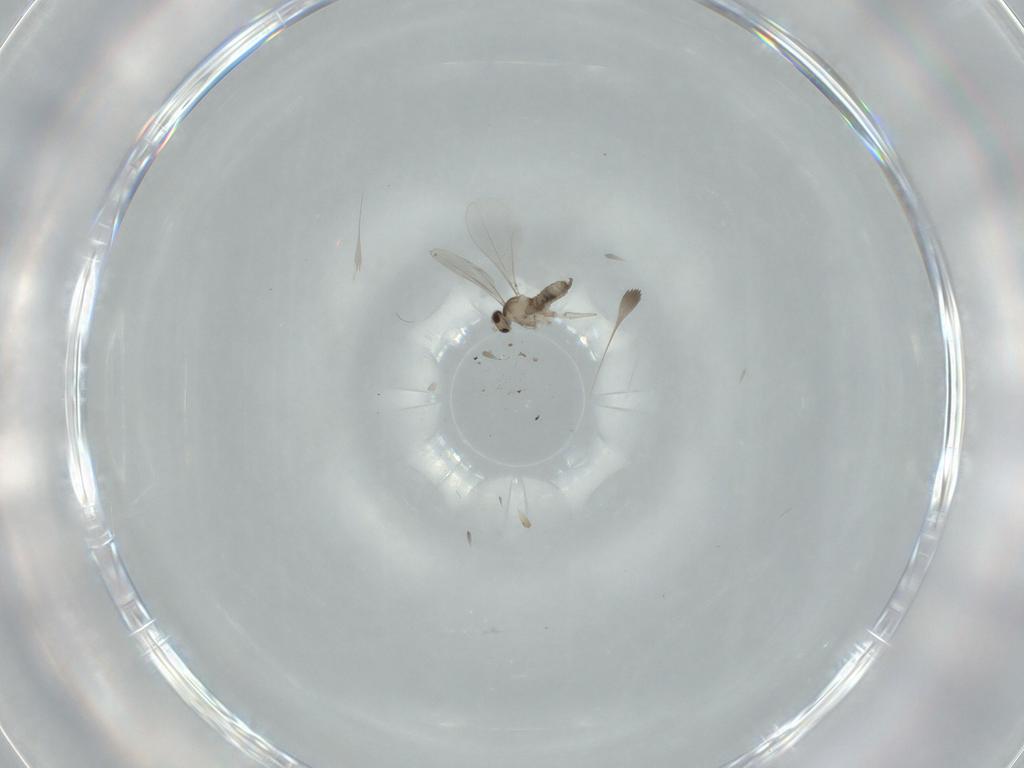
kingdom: Animalia
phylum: Arthropoda
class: Insecta
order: Diptera
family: Cecidomyiidae
